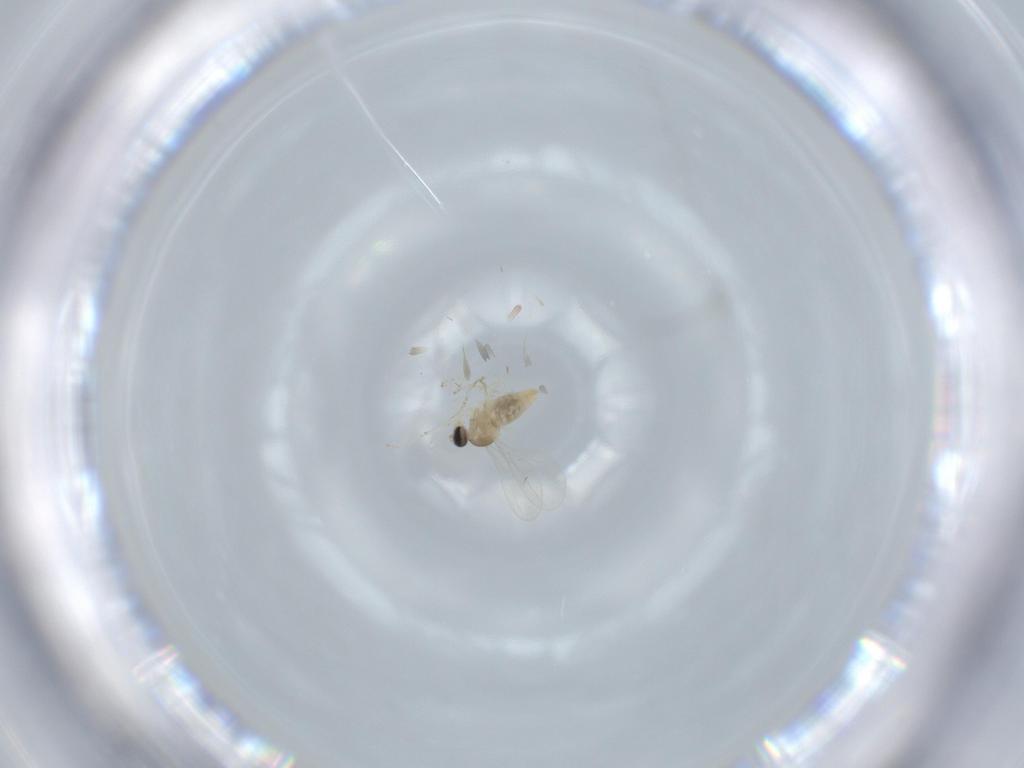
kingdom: Animalia
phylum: Arthropoda
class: Insecta
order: Diptera
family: Cecidomyiidae
